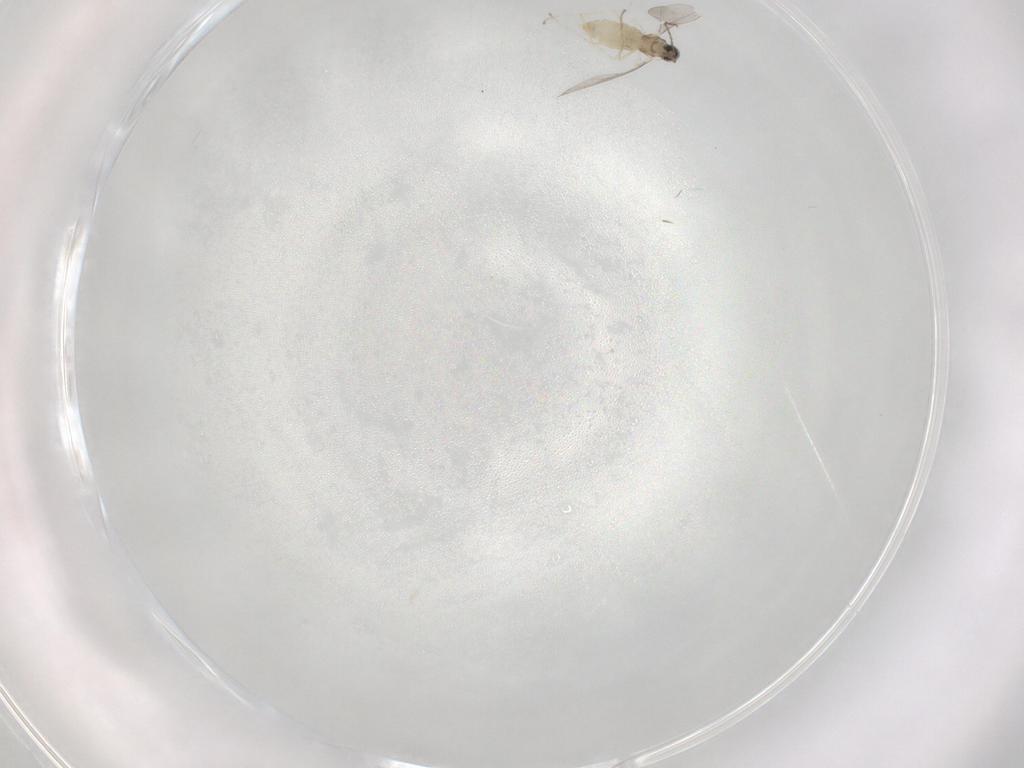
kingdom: Animalia
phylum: Arthropoda
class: Insecta
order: Diptera
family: Cecidomyiidae
